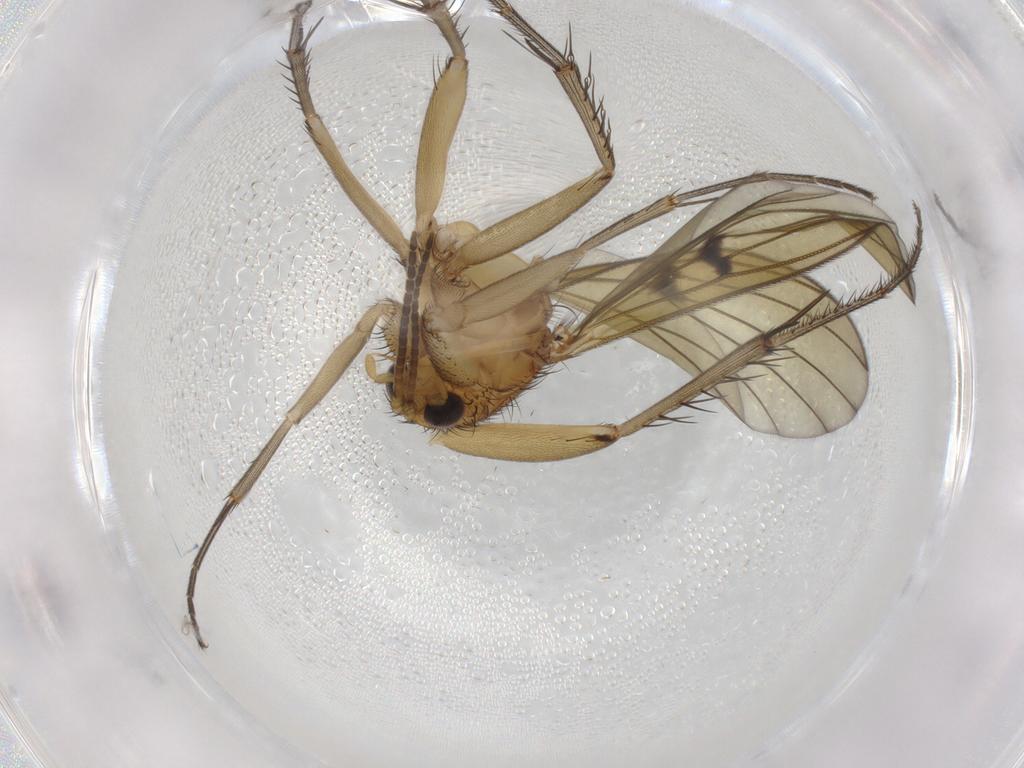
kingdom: Animalia
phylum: Arthropoda
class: Insecta
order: Diptera
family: Mycetophilidae
